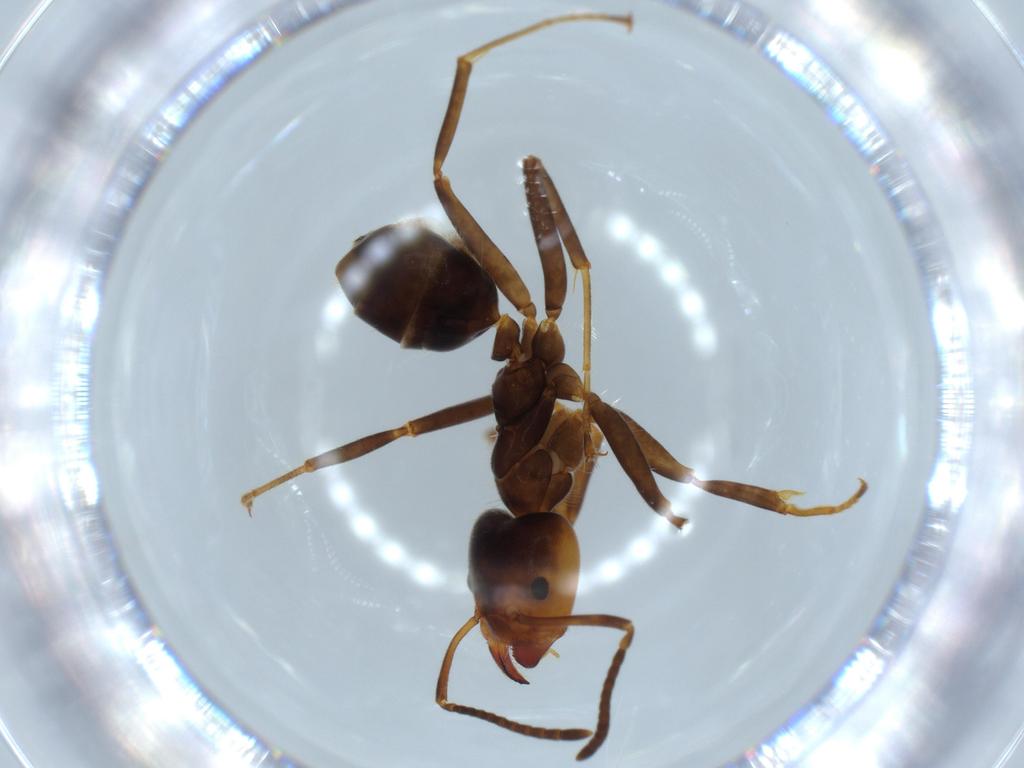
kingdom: Animalia
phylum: Arthropoda
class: Insecta
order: Hymenoptera
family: Formicidae
